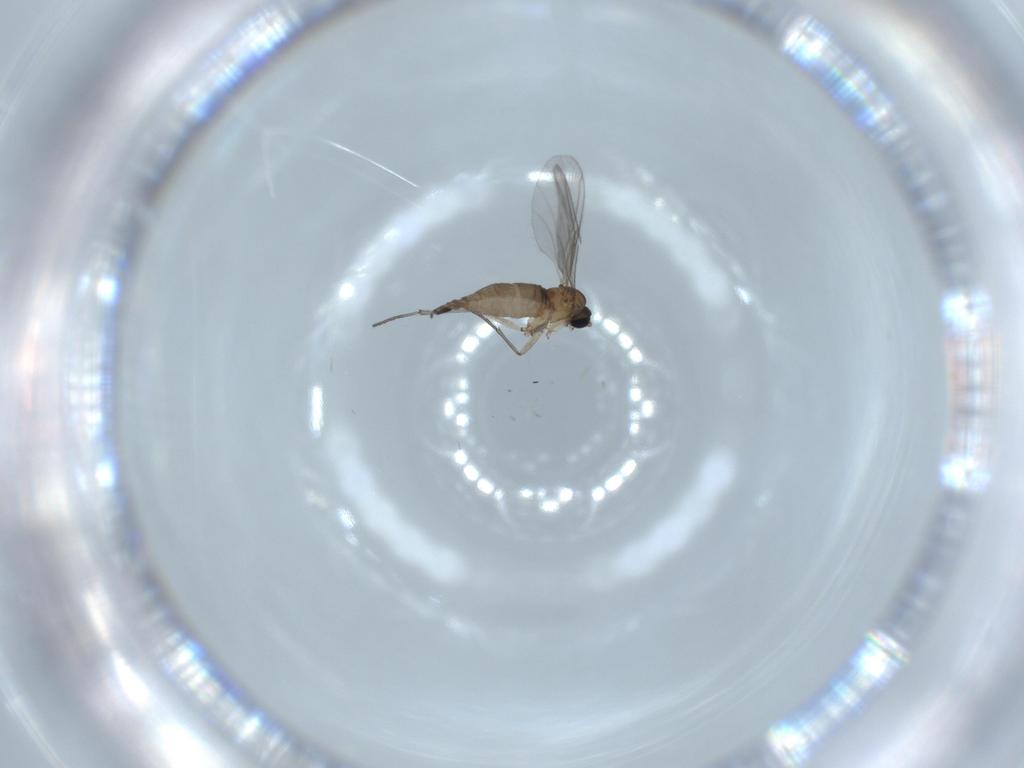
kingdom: Animalia
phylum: Arthropoda
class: Insecta
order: Diptera
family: Sciaridae
